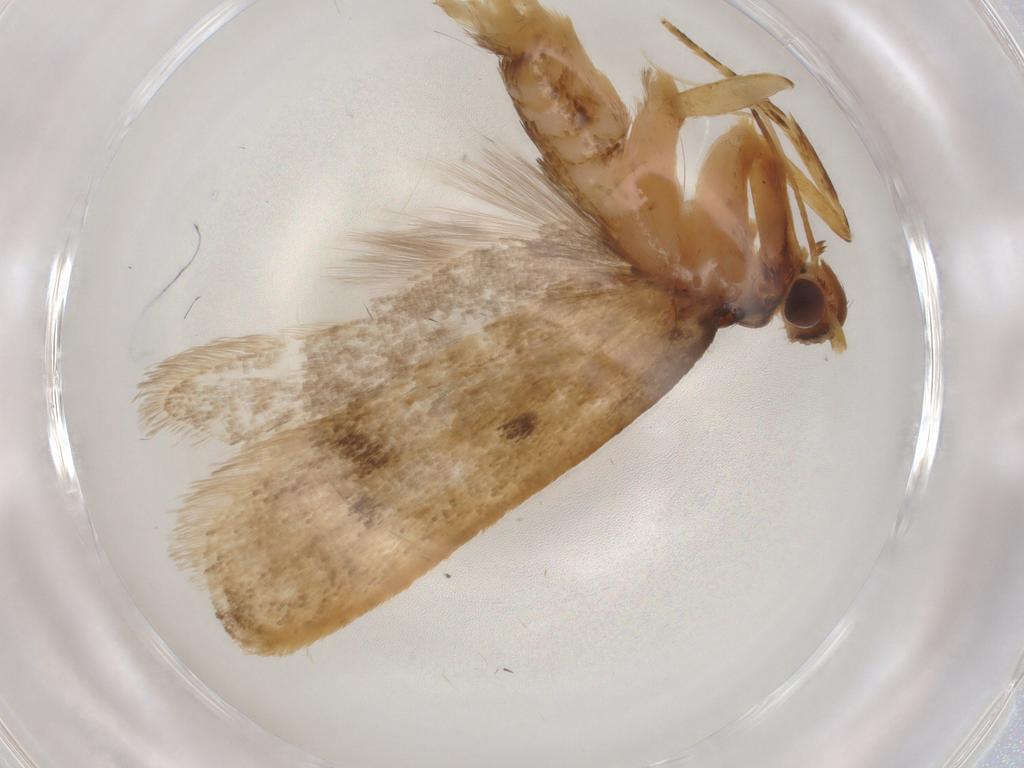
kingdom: Animalia
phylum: Arthropoda
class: Insecta
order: Lepidoptera
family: Lecithoceridae
